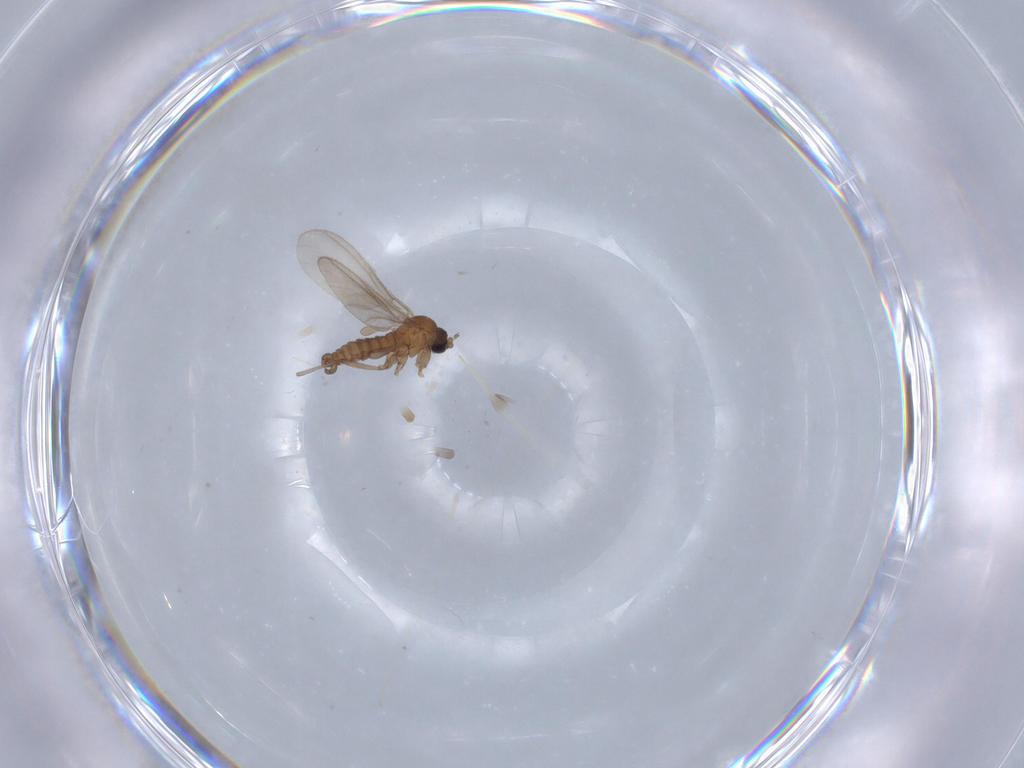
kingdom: Animalia
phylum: Arthropoda
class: Insecta
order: Diptera
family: Sciaridae
